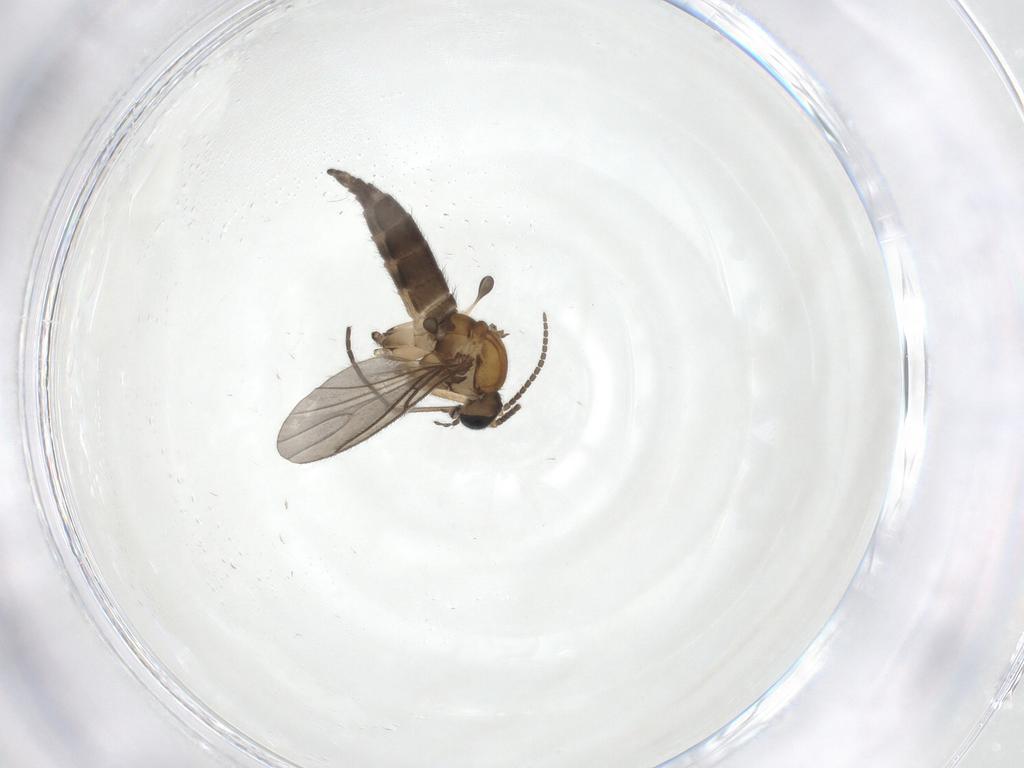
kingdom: Animalia
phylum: Arthropoda
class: Insecta
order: Diptera
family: Sciaridae
